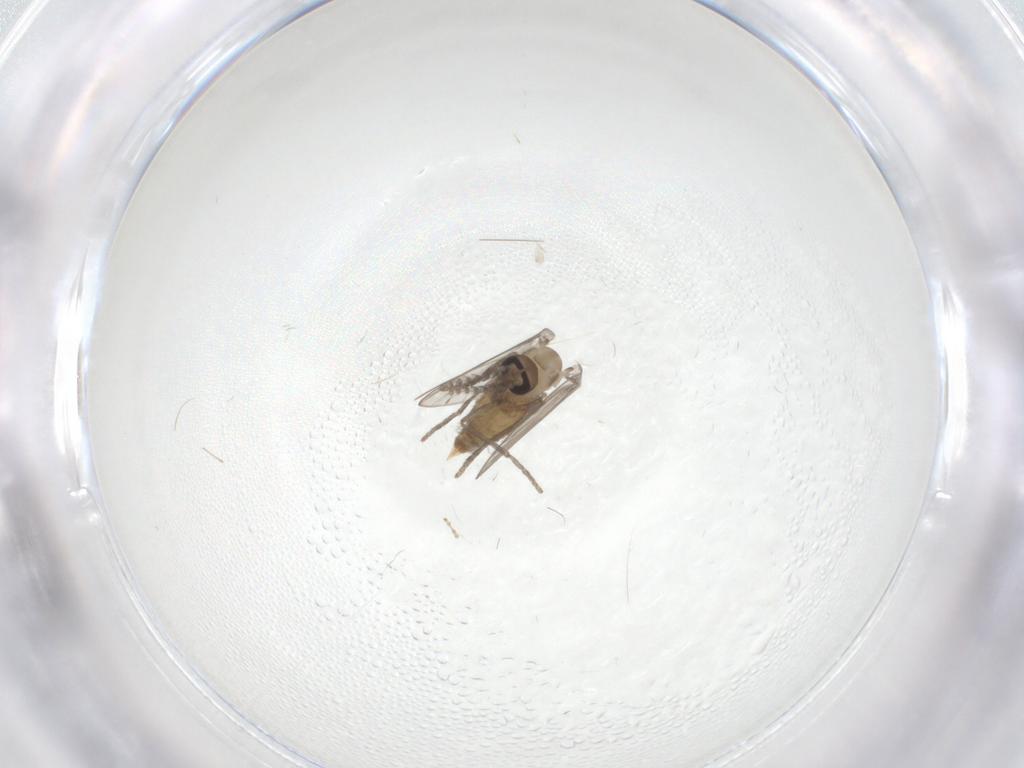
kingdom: Animalia
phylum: Arthropoda
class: Insecta
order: Diptera
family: Psychodidae
